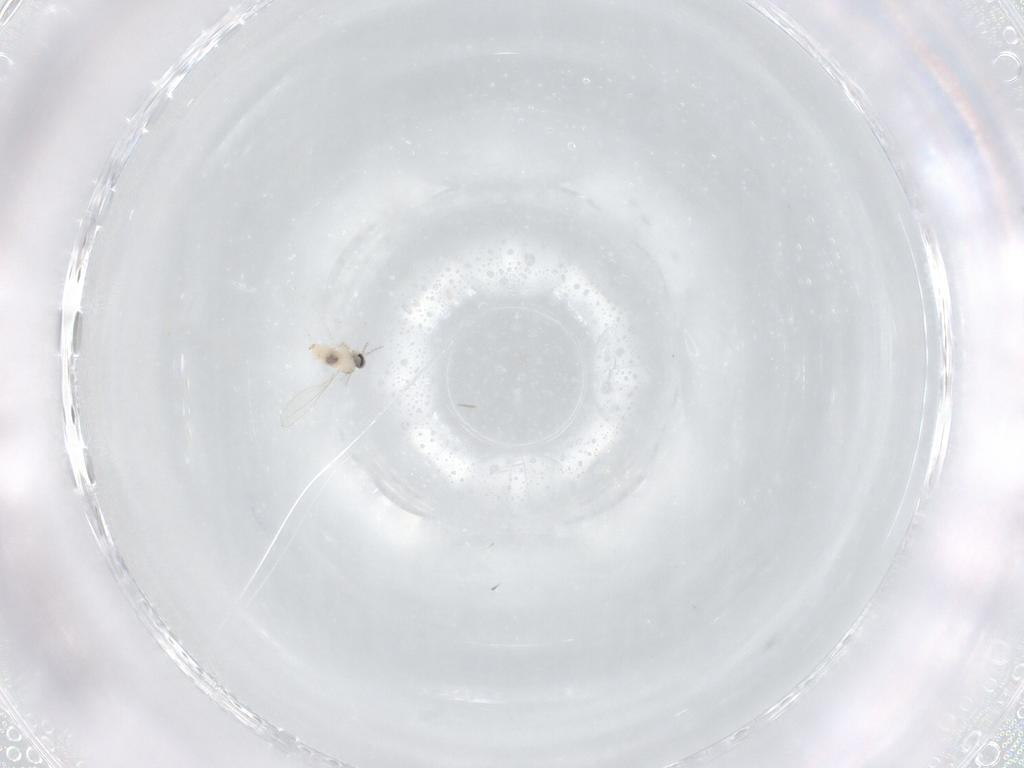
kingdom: Animalia
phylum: Arthropoda
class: Insecta
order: Diptera
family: Cecidomyiidae
